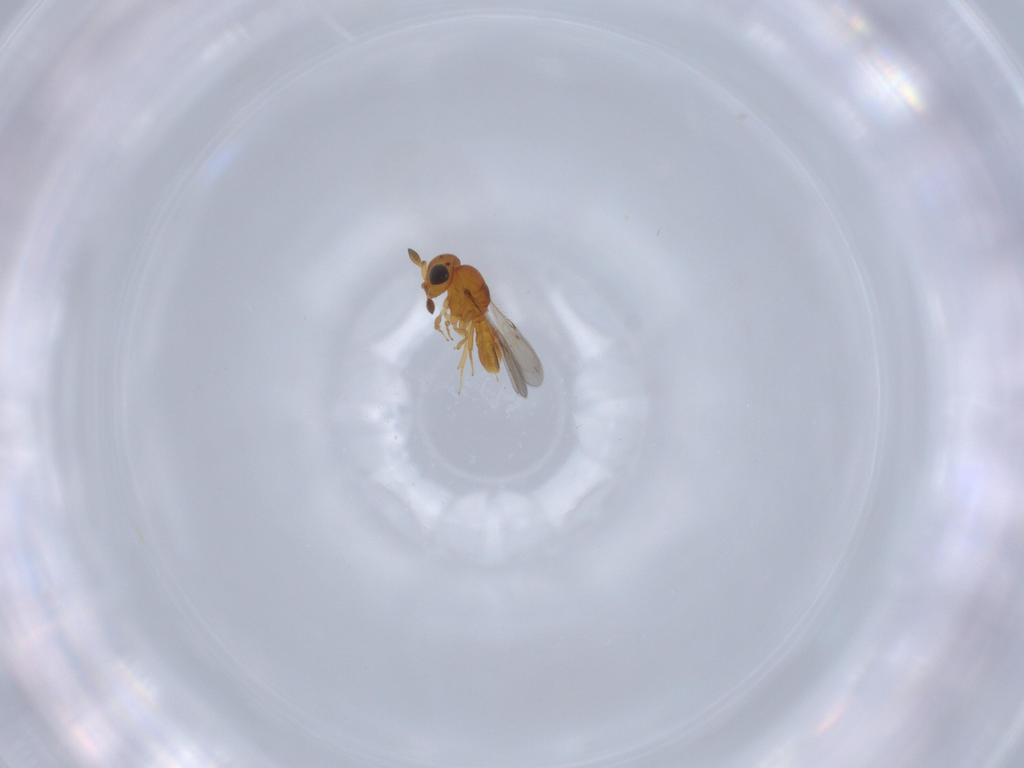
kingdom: Animalia
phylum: Arthropoda
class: Insecta
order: Hymenoptera
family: Scelionidae
